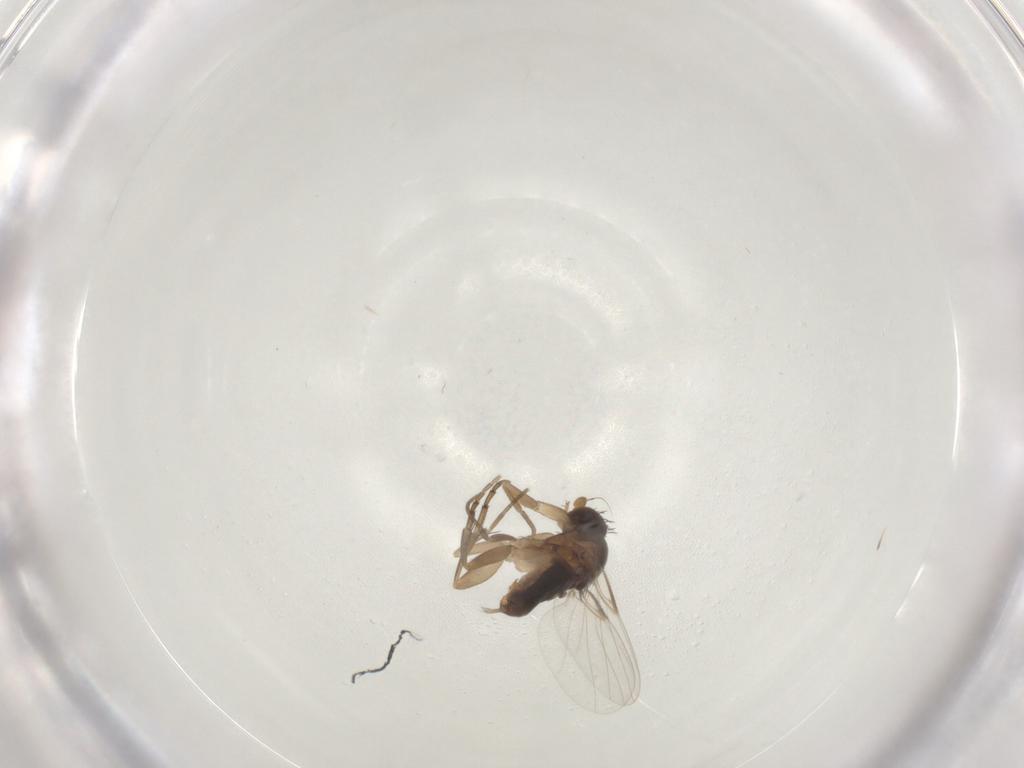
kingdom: Animalia
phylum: Arthropoda
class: Insecta
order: Diptera
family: Phoridae
